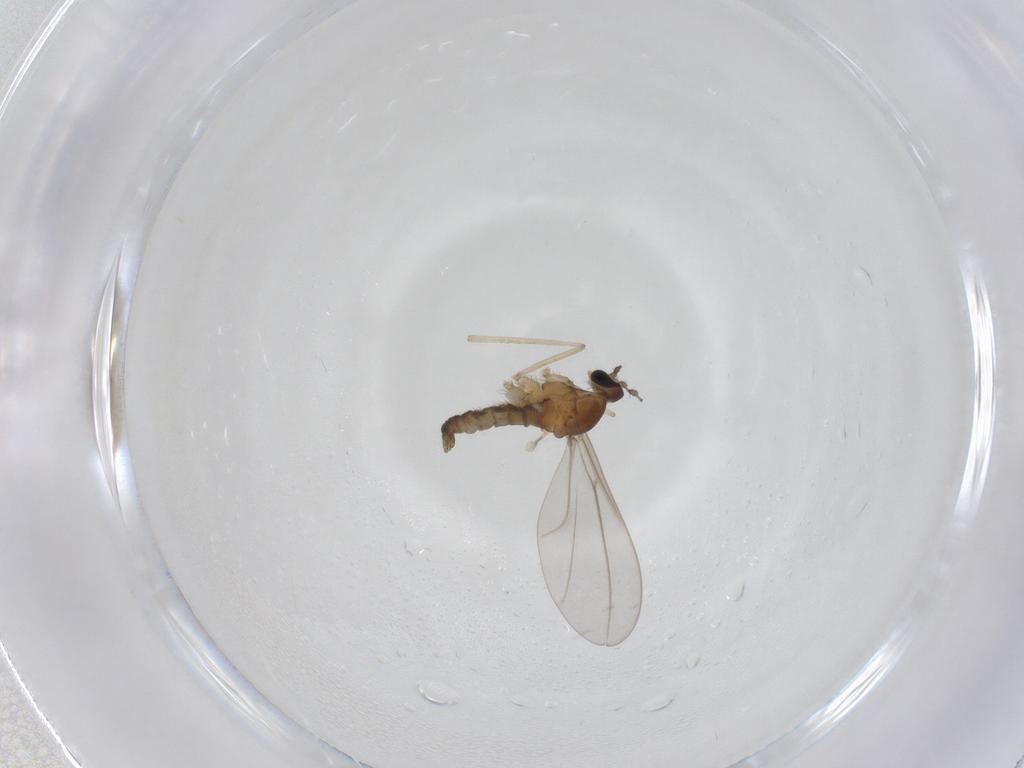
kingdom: Animalia
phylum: Arthropoda
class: Insecta
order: Diptera
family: Cecidomyiidae
